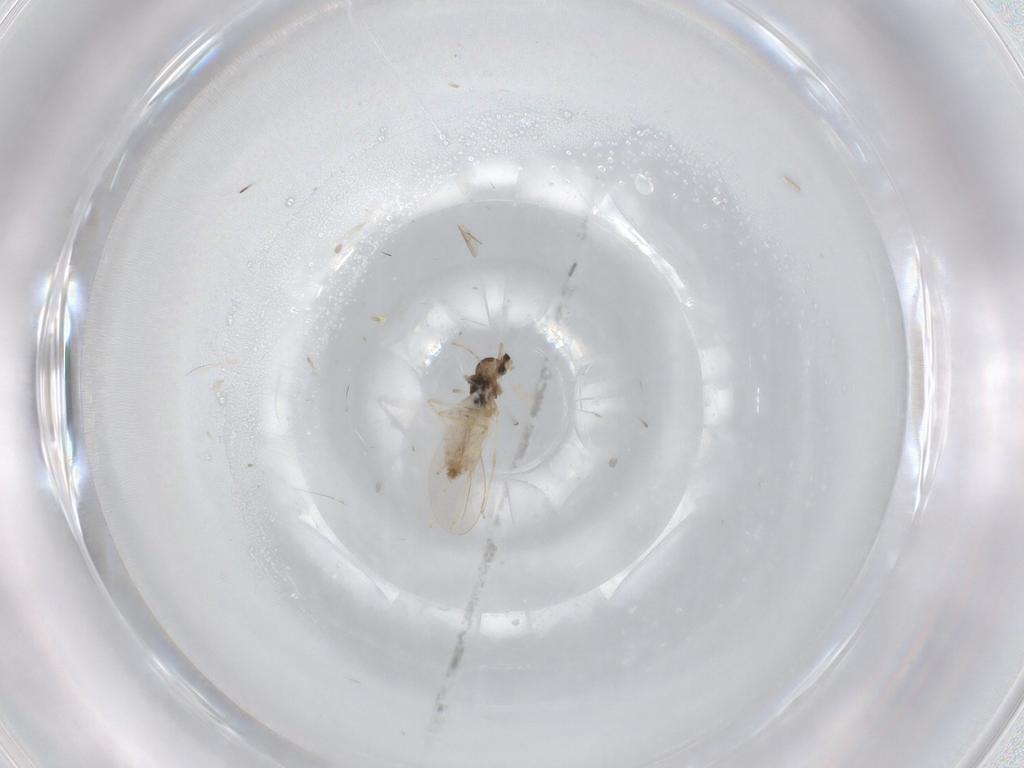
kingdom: Animalia
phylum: Arthropoda
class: Insecta
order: Diptera
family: Cecidomyiidae
